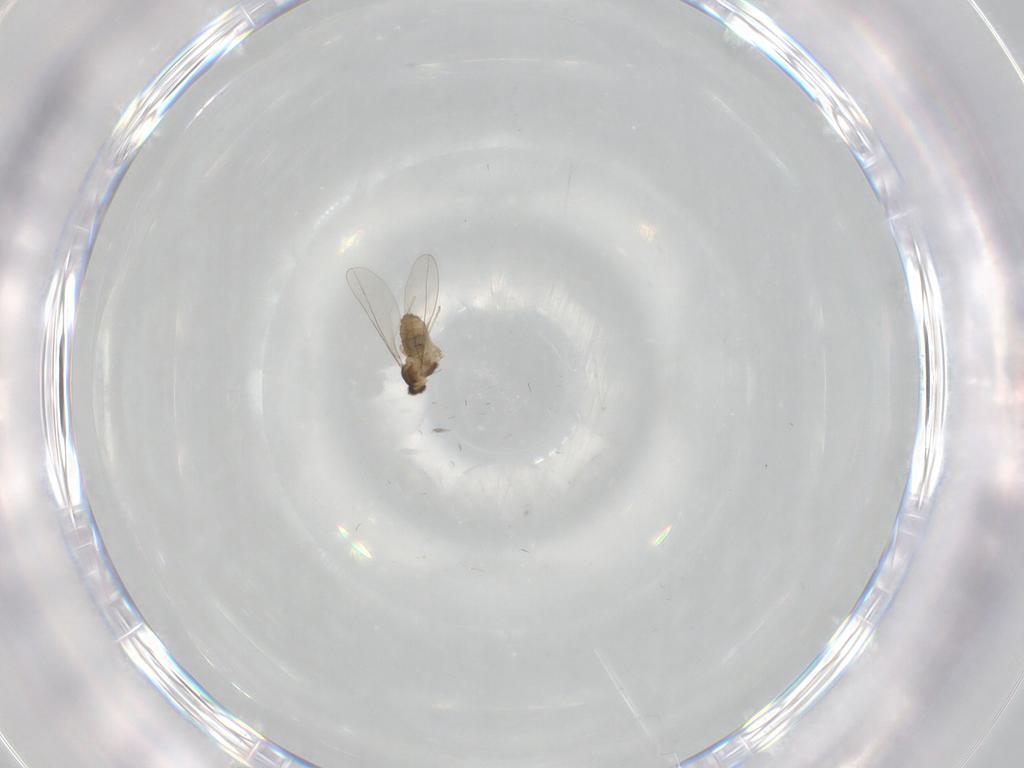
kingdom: Animalia
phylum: Arthropoda
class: Insecta
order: Diptera
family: Cecidomyiidae
